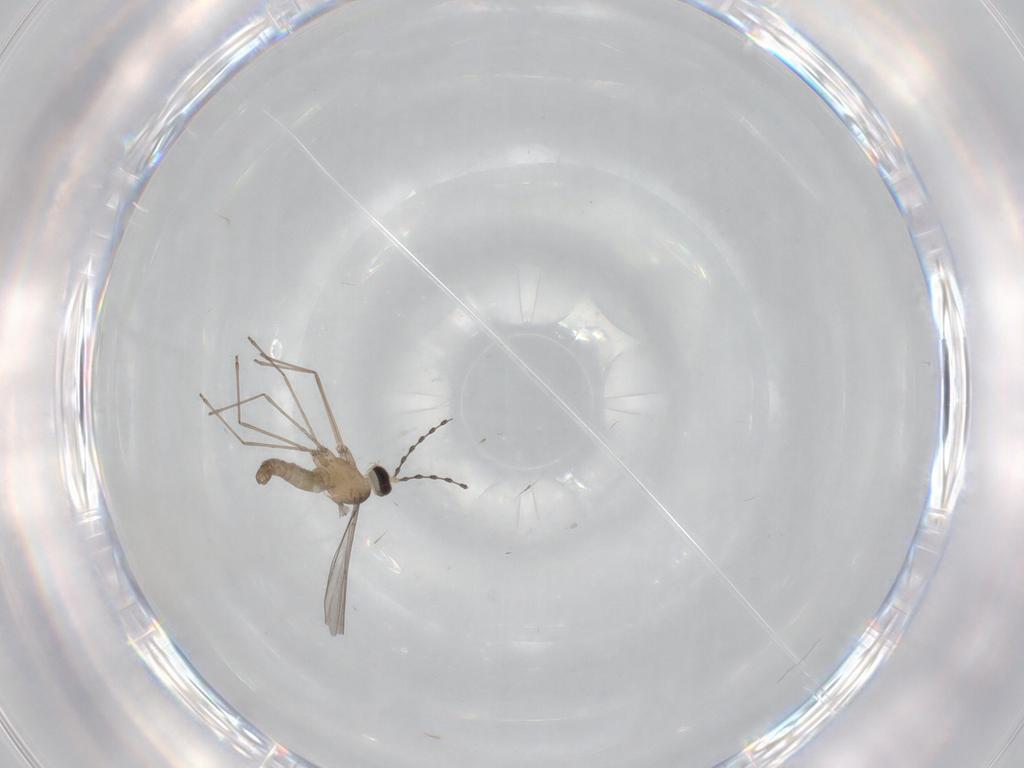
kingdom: Animalia
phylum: Arthropoda
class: Insecta
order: Diptera
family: Cecidomyiidae
